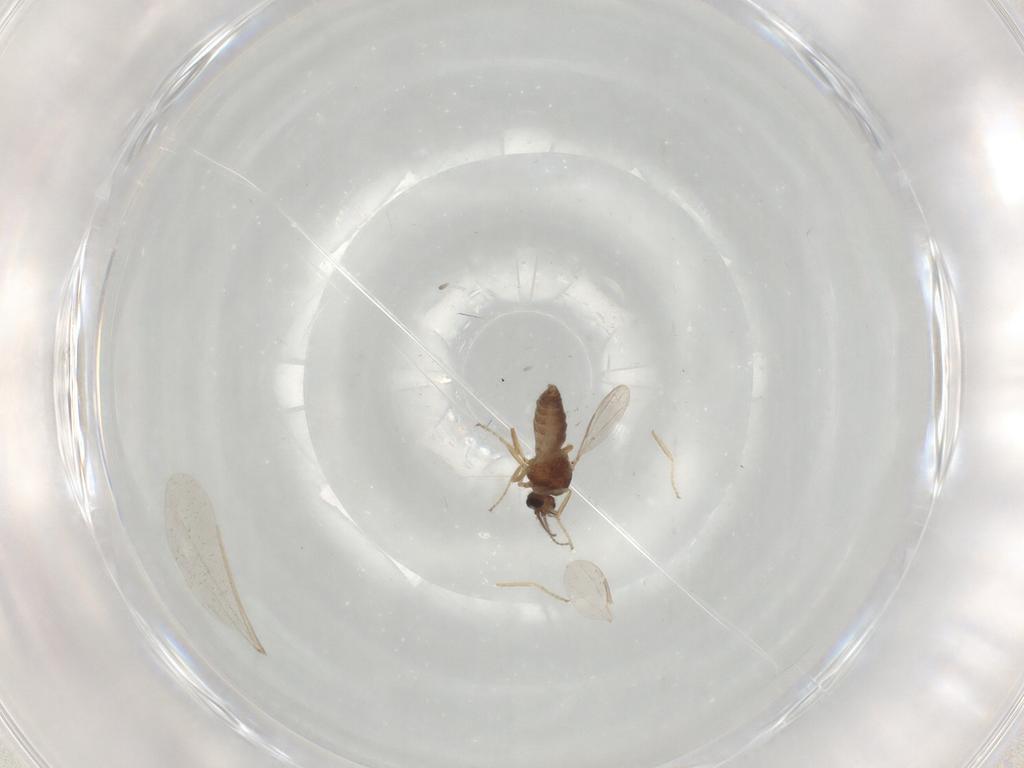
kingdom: Animalia
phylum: Arthropoda
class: Insecta
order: Diptera
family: Ceratopogonidae
